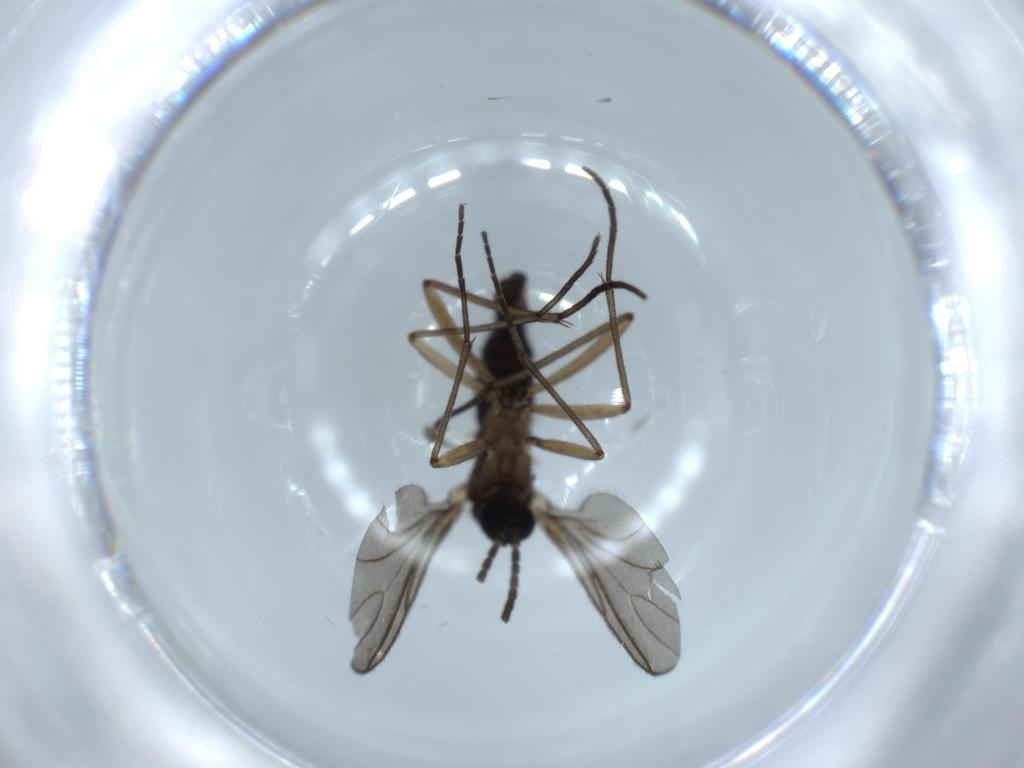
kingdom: Animalia
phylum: Arthropoda
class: Insecta
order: Diptera
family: Sciaridae
